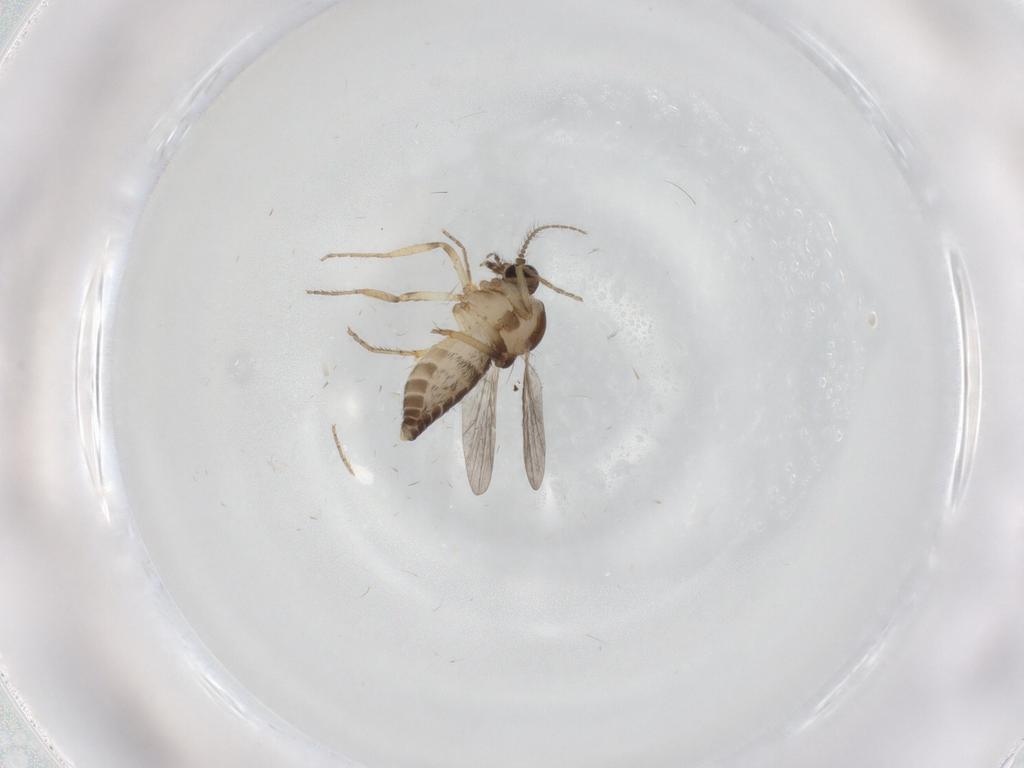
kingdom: Animalia
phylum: Arthropoda
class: Insecta
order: Diptera
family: Ceratopogonidae
